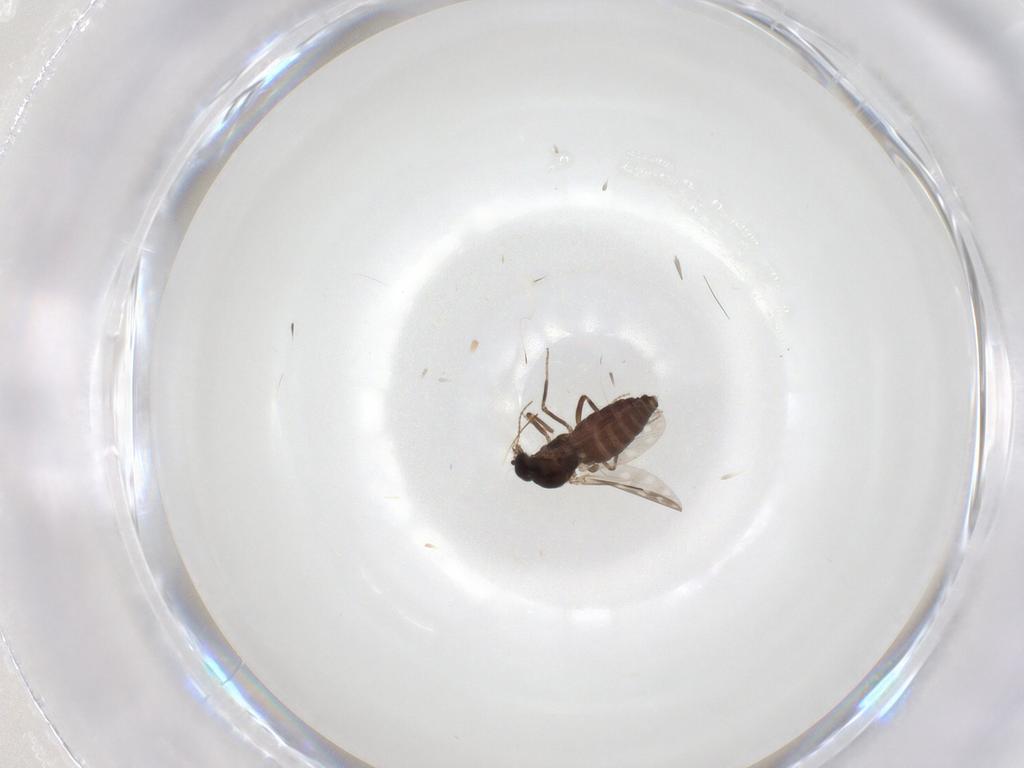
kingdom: Animalia
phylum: Arthropoda
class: Insecta
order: Diptera
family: Ceratopogonidae
